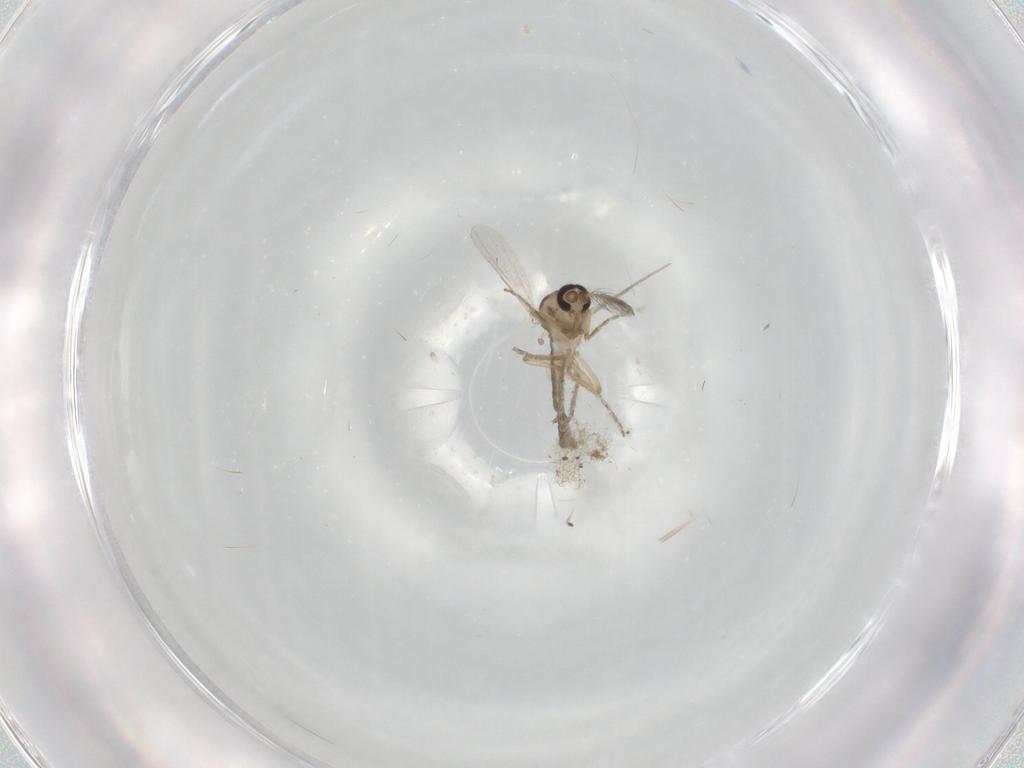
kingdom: Animalia
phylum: Arthropoda
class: Insecta
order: Diptera
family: Ceratopogonidae
